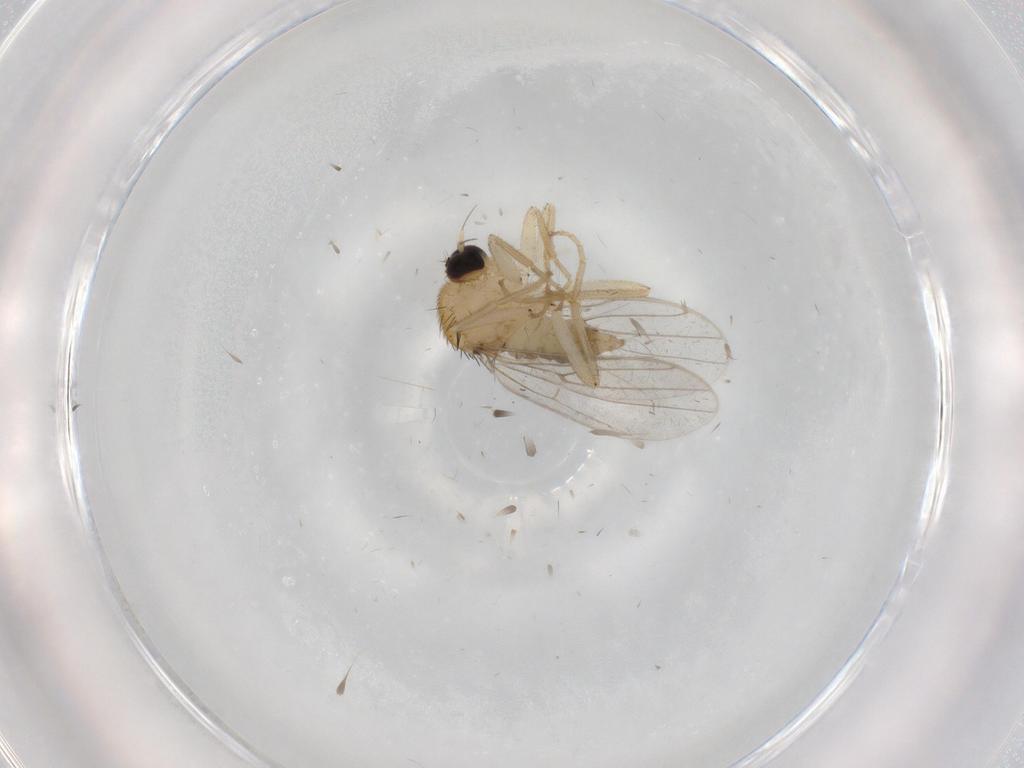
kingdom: Animalia
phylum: Arthropoda
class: Insecta
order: Diptera
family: Hybotidae
